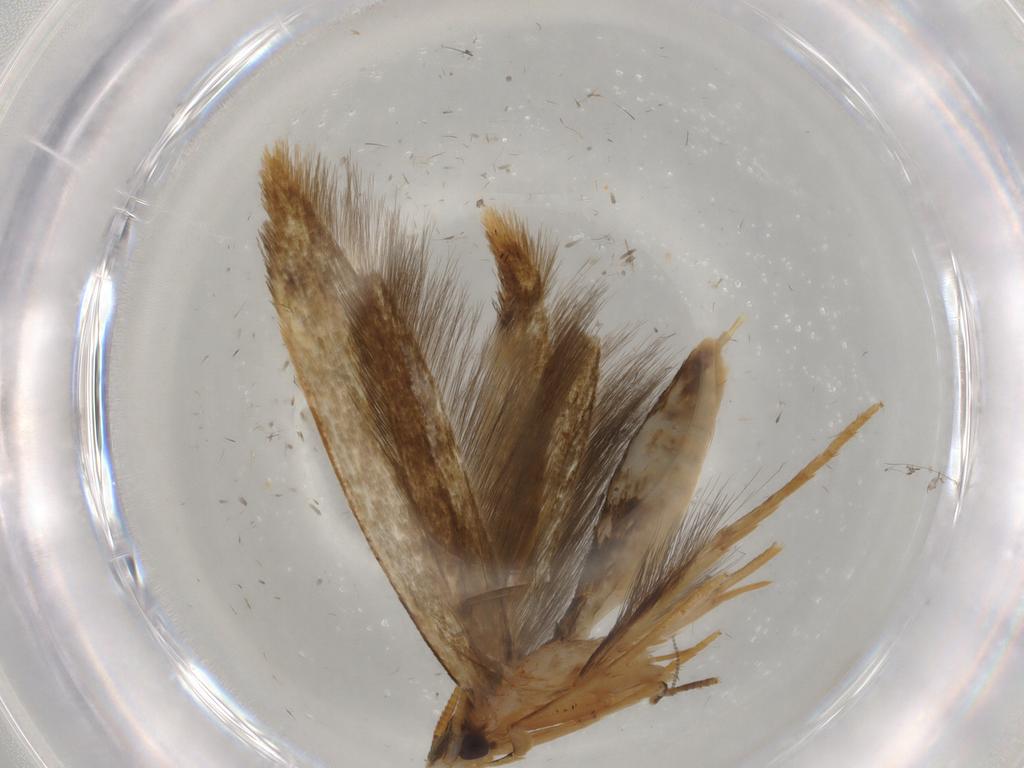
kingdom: Animalia
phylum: Arthropoda
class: Insecta
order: Lepidoptera
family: Tineidae
